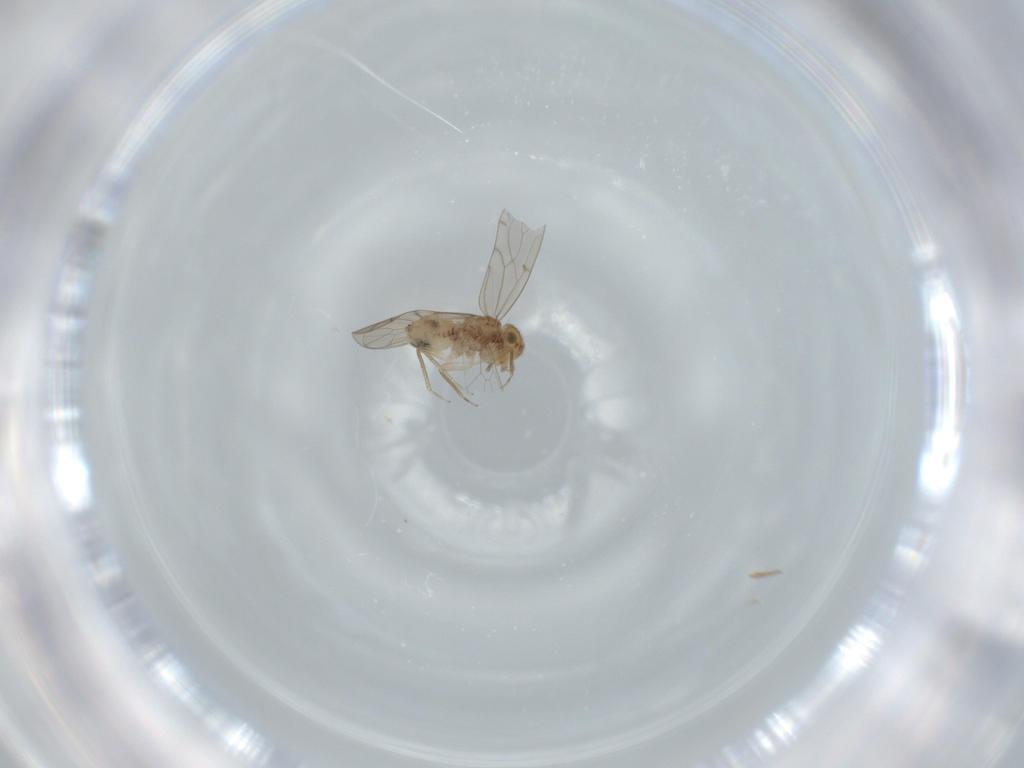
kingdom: Animalia
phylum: Arthropoda
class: Insecta
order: Psocodea
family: Ectopsocidae
